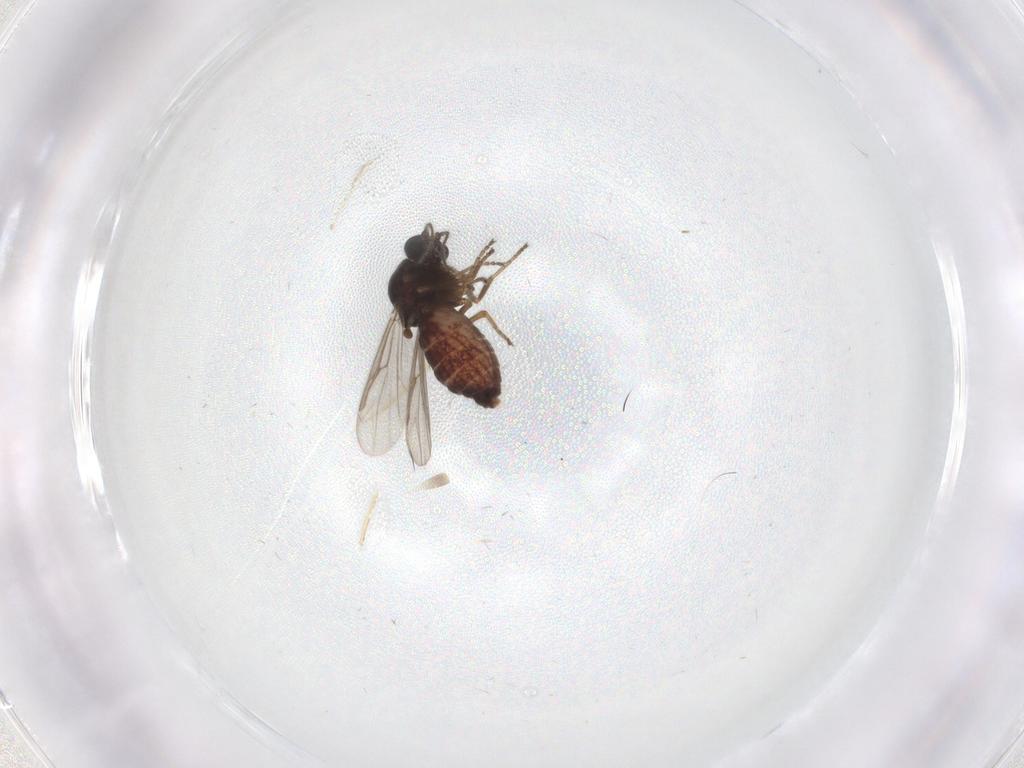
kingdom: Animalia
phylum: Arthropoda
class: Insecta
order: Diptera
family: Ceratopogonidae
